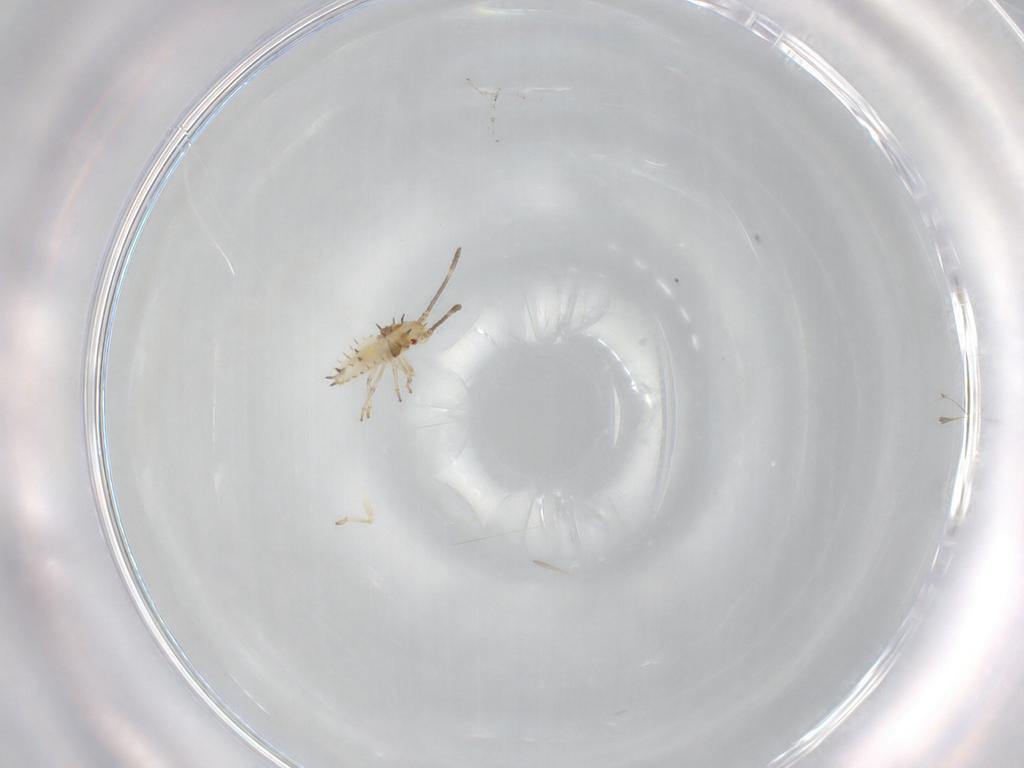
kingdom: Animalia
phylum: Arthropoda
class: Insecta
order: Hemiptera
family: Tingidae
